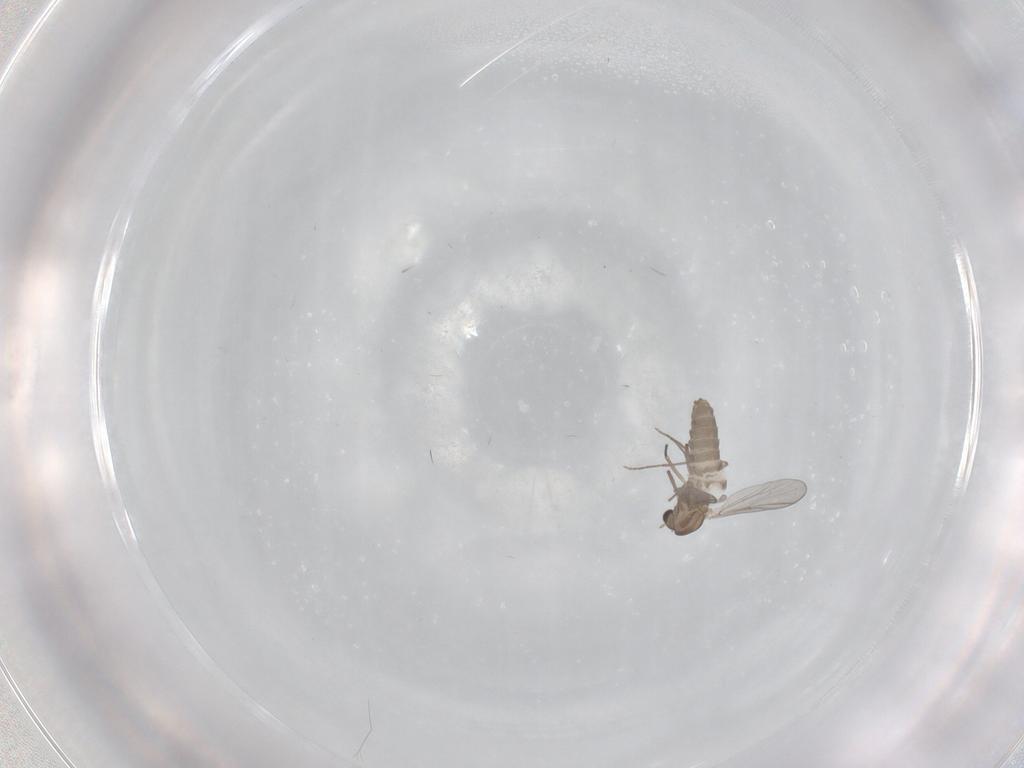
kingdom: Animalia
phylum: Arthropoda
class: Insecta
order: Diptera
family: Chironomidae
